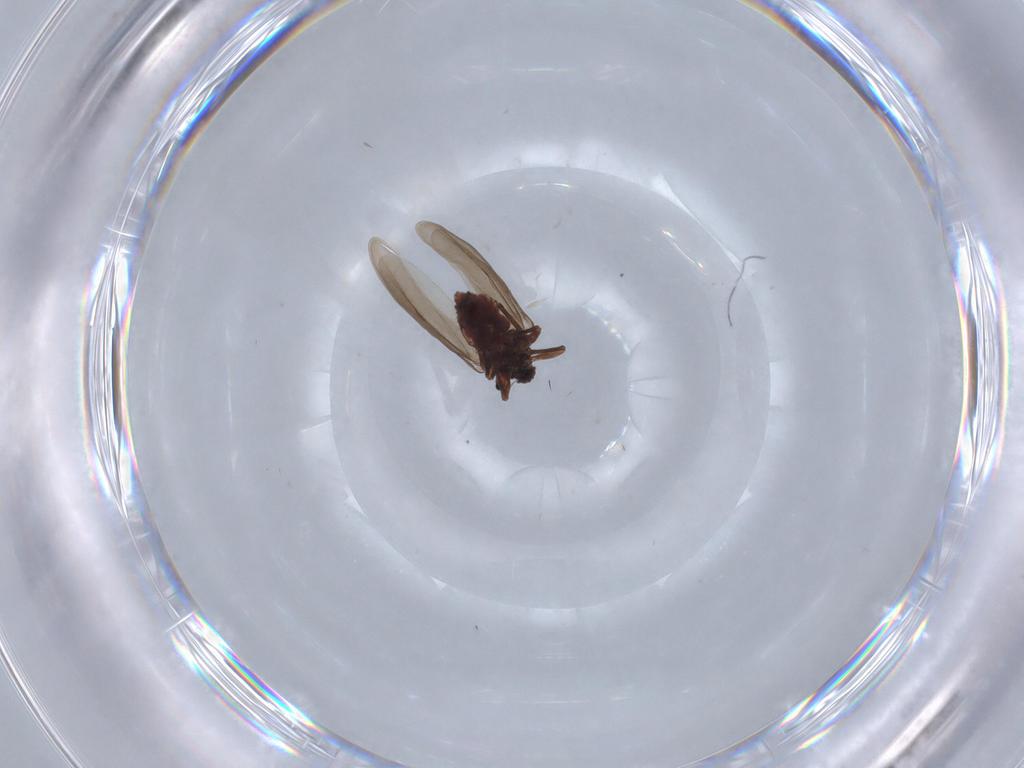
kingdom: Animalia
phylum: Arthropoda
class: Insecta
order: Hemiptera
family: Aleyrodidae
